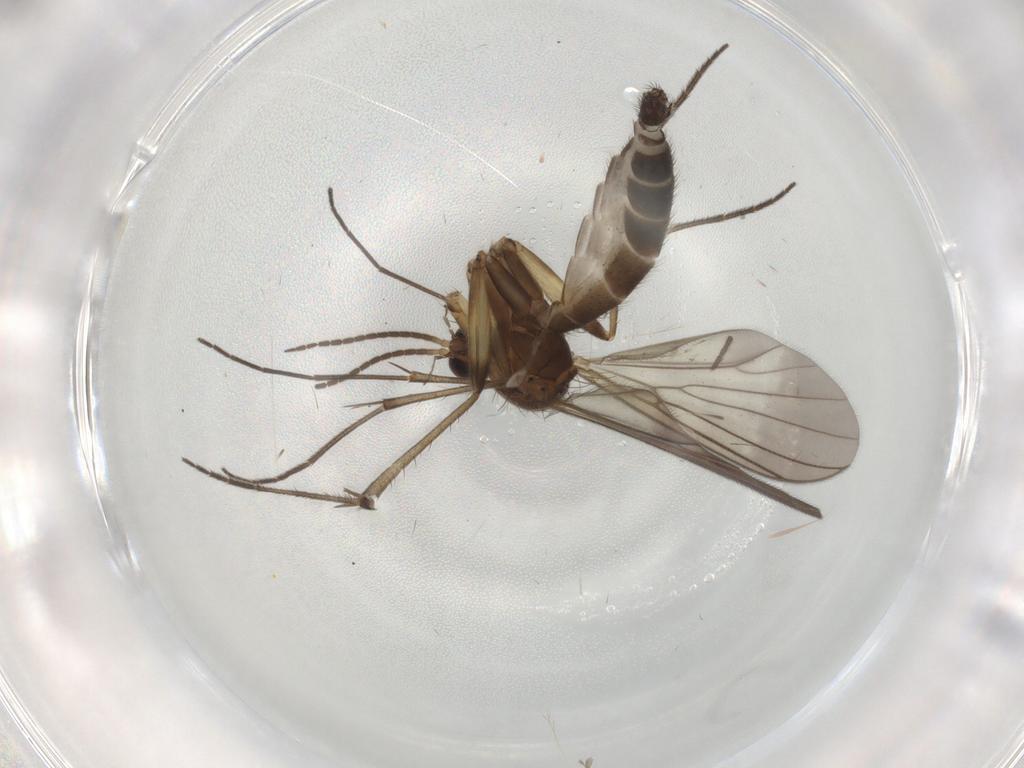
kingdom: Animalia
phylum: Arthropoda
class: Insecta
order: Diptera
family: Mycetophilidae
